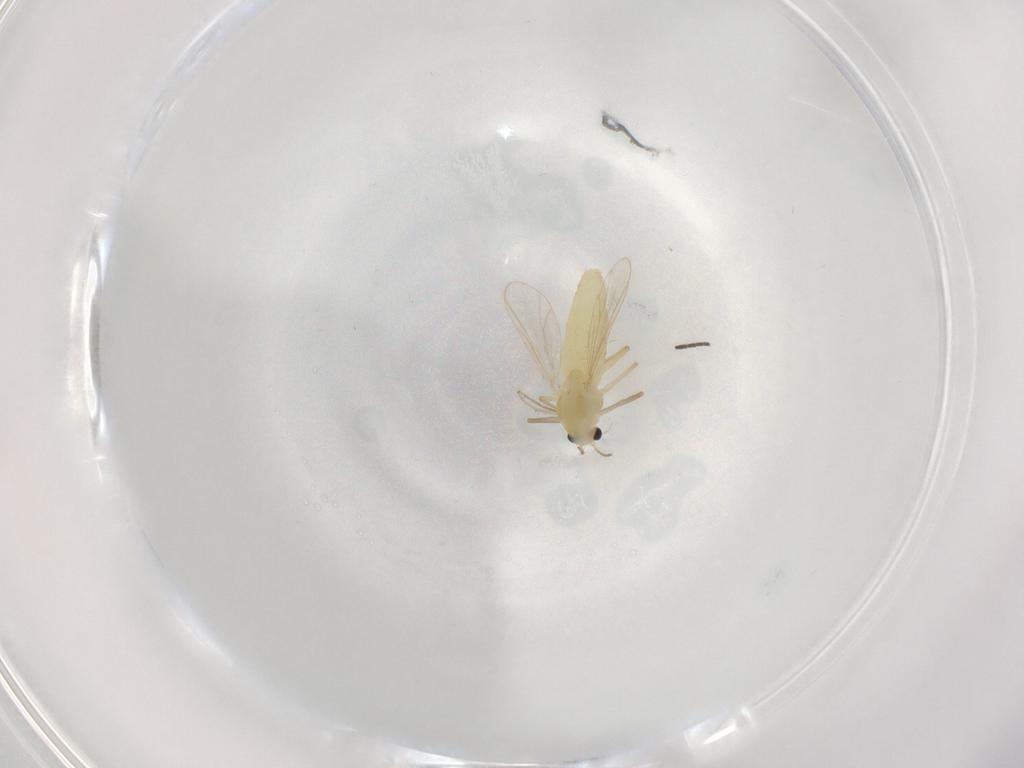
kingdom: Animalia
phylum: Arthropoda
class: Insecta
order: Diptera
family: Chironomidae
